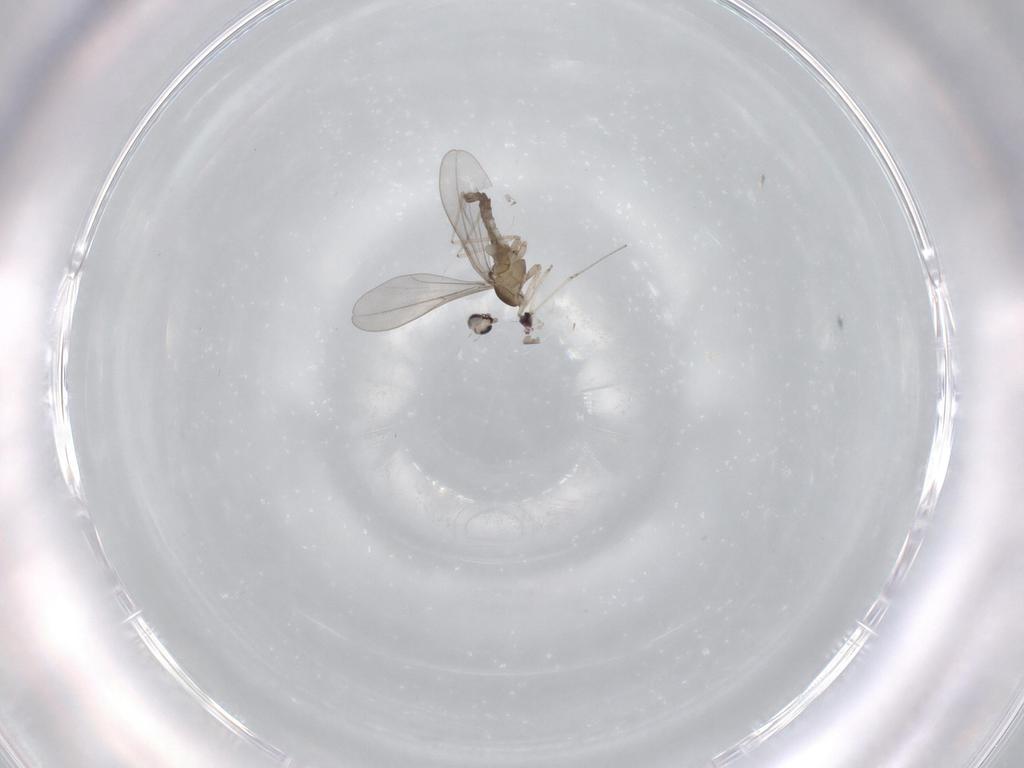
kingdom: Animalia
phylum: Arthropoda
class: Insecta
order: Diptera
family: Cecidomyiidae
